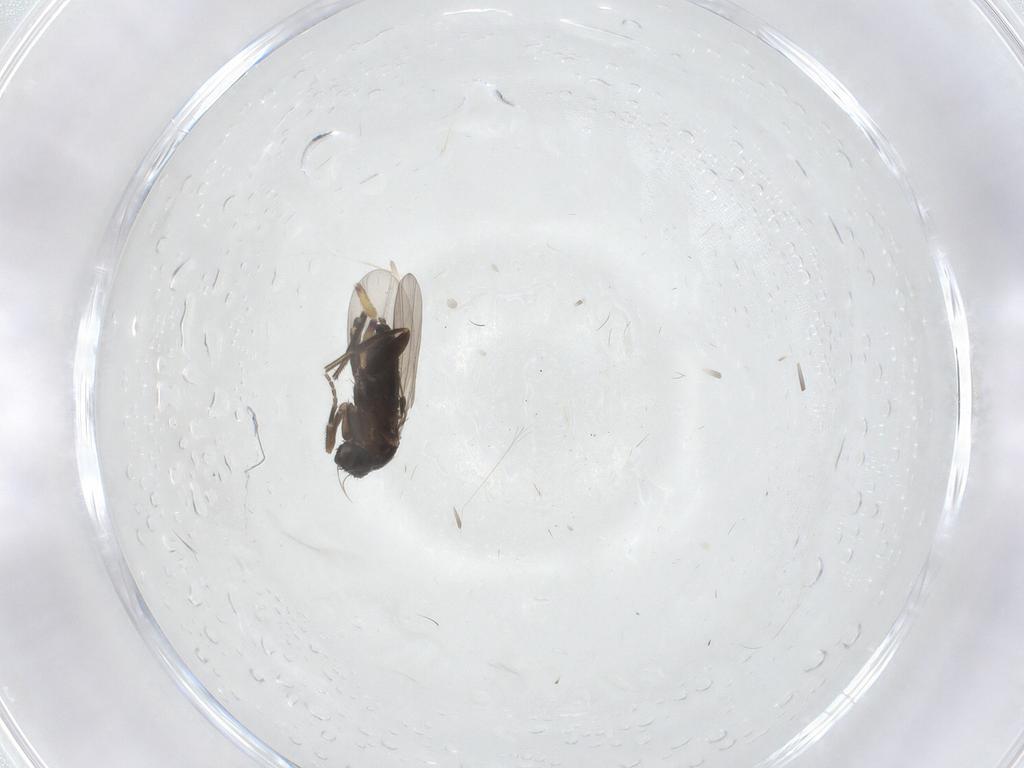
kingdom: Animalia
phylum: Arthropoda
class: Insecta
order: Diptera
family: Phoridae
